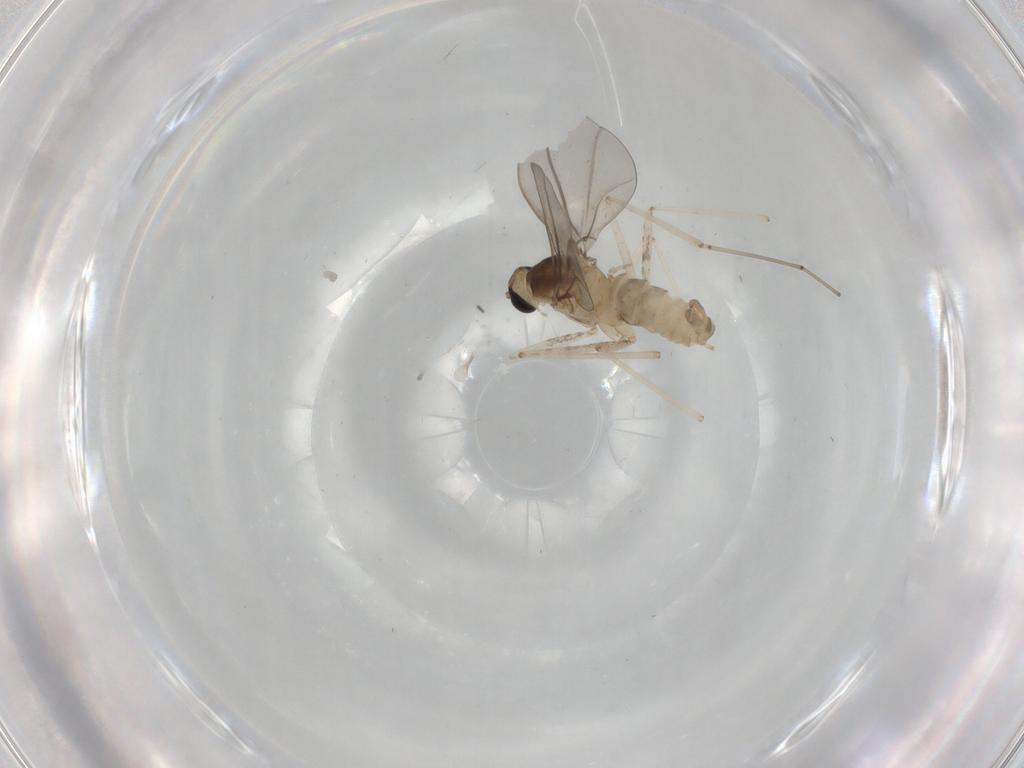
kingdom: Animalia
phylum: Arthropoda
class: Insecta
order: Diptera
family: Cecidomyiidae
